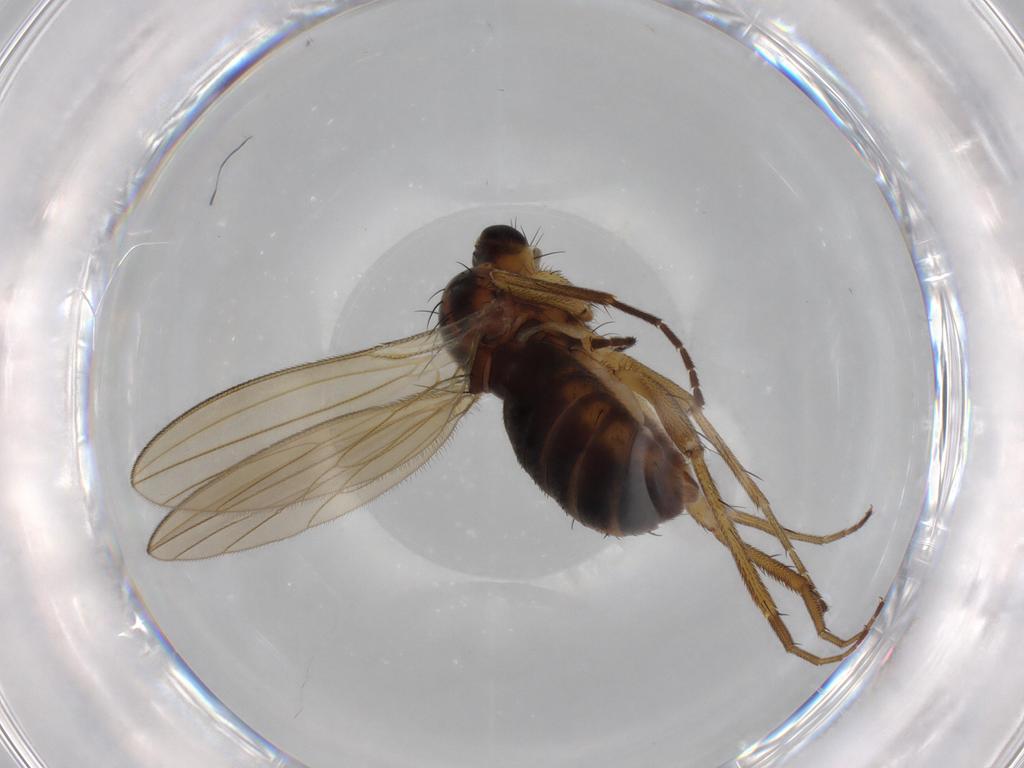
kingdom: Animalia
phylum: Arthropoda
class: Insecta
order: Diptera
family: Lonchopteridae
